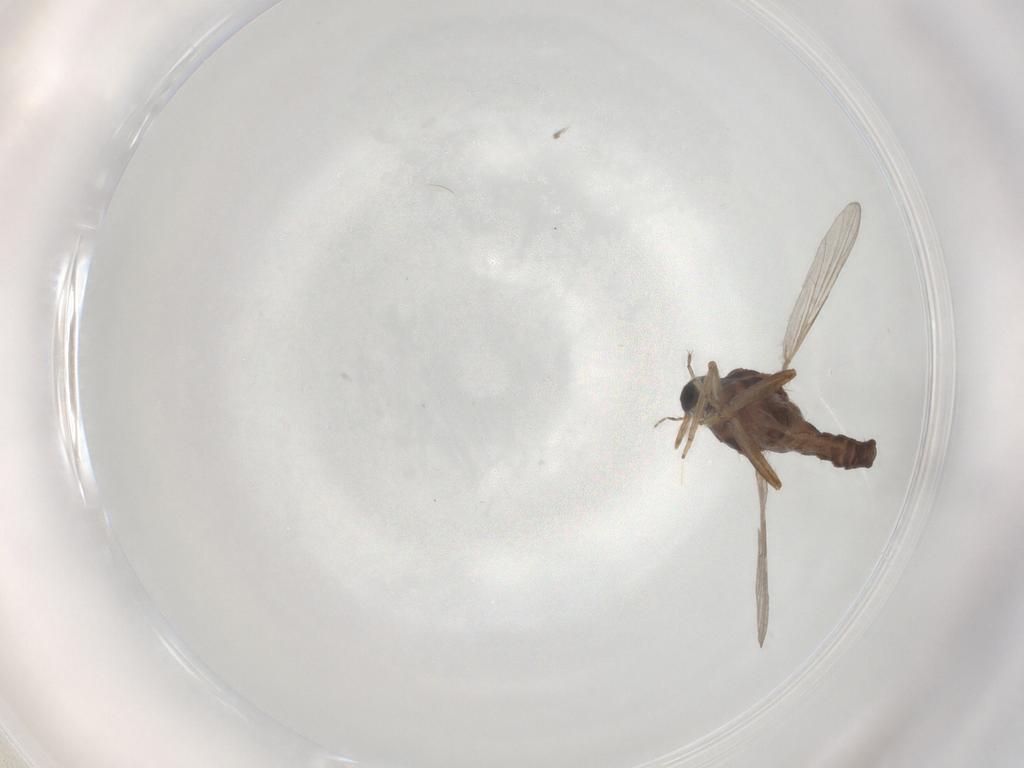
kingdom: Animalia
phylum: Arthropoda
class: Insecta
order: Diptera
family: Ceratopogonidae
